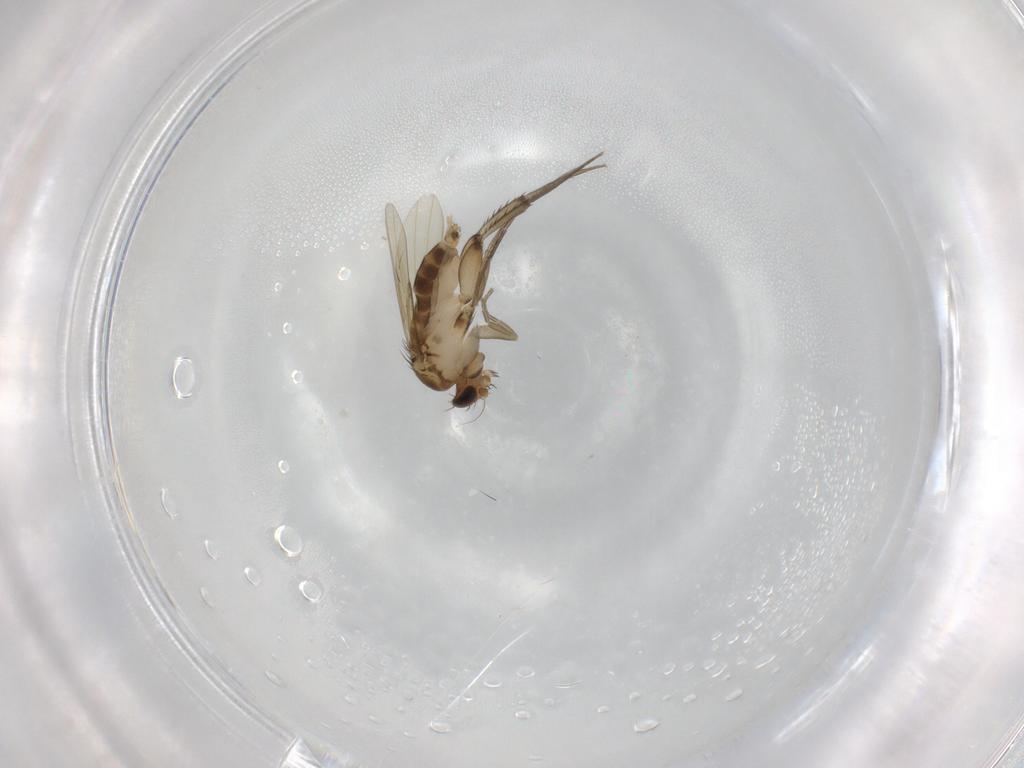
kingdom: Animalia
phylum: Arthropoda
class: Insecta
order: Diptera
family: Phoridae
